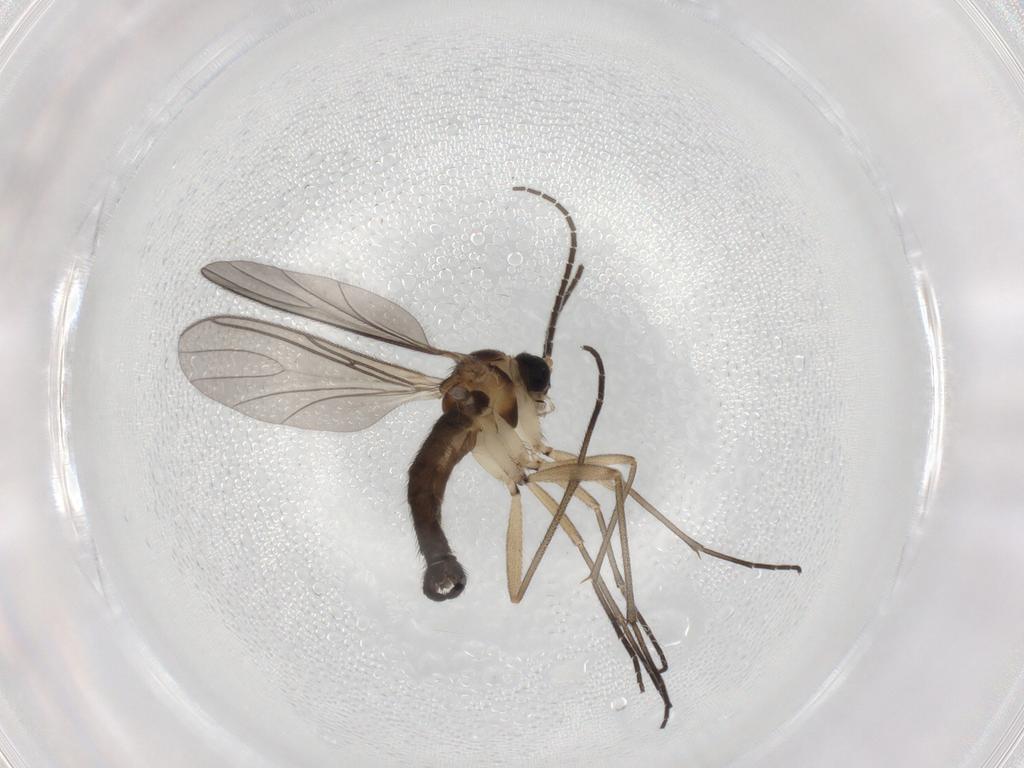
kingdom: Animalia
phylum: Arthropoda
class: Insecta
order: Diptera
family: Sciaridae
